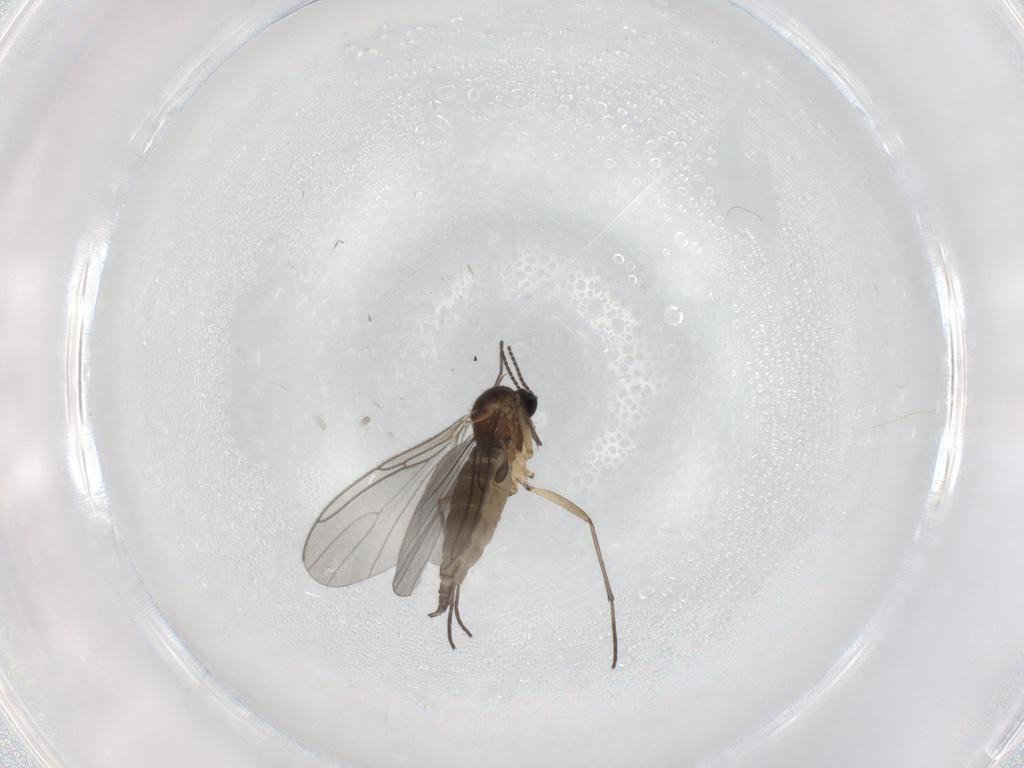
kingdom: Animalia
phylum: Arthropoda
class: Insecta
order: Diptera
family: Sciaridae
